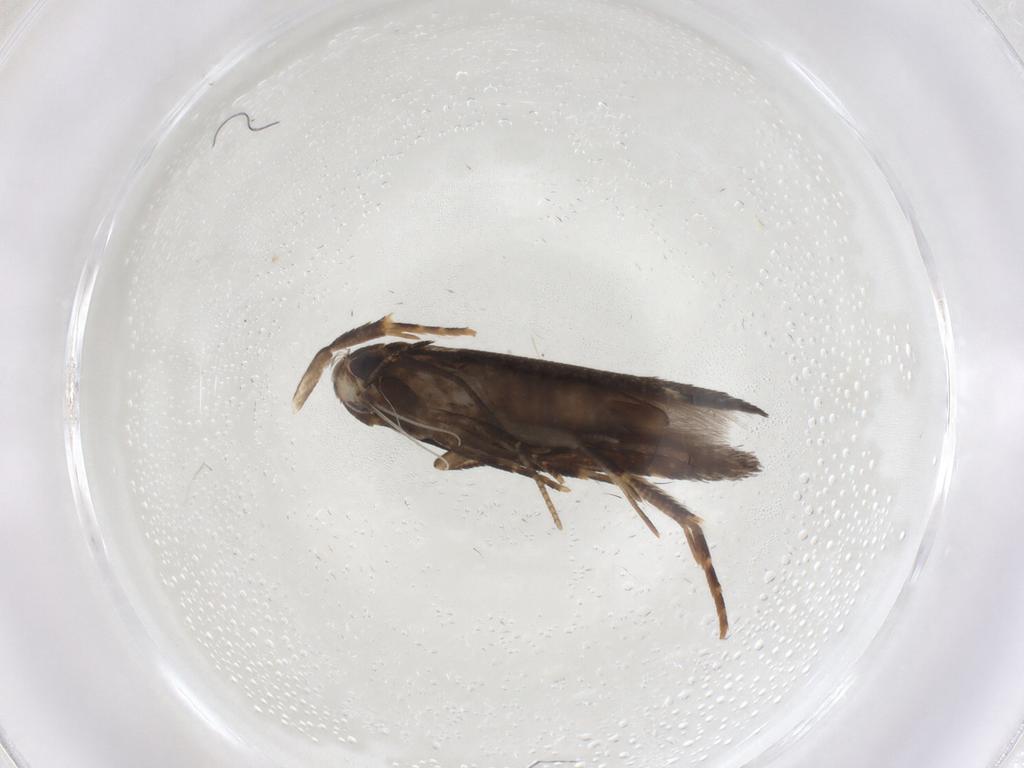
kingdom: Animalia
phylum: Arthropoda
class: Insecta
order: Lepidoptera
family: Cosmopterigidae
